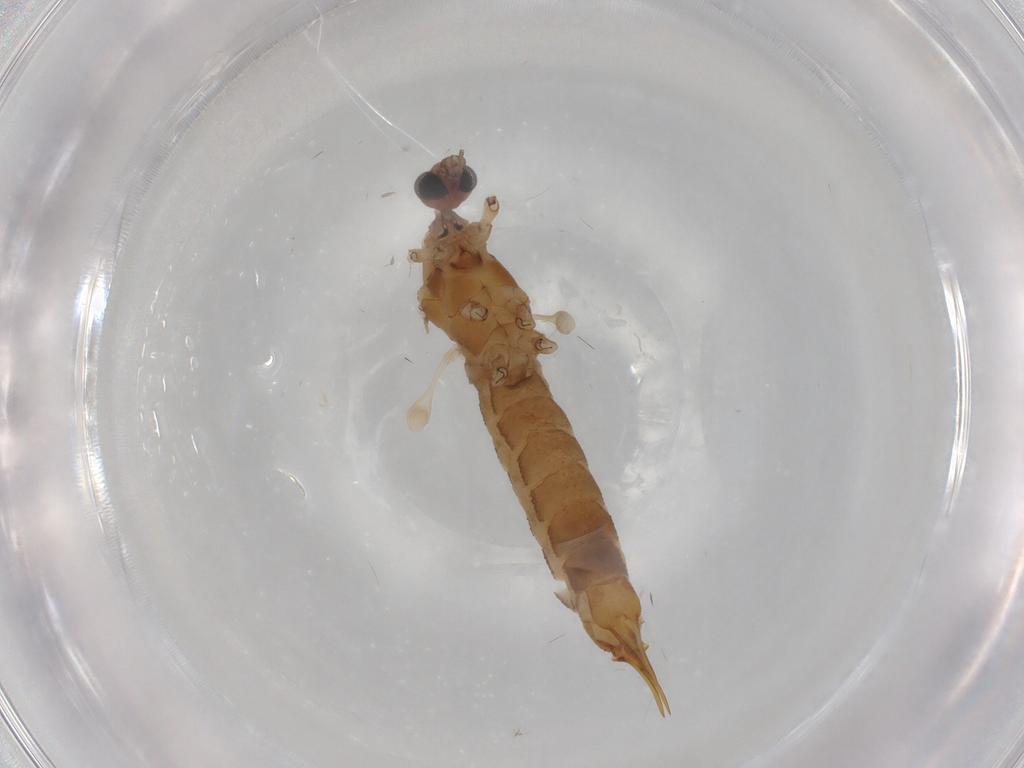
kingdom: Animalia
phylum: Arthropoda
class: Insecta
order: Diptera
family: Limoniidae
